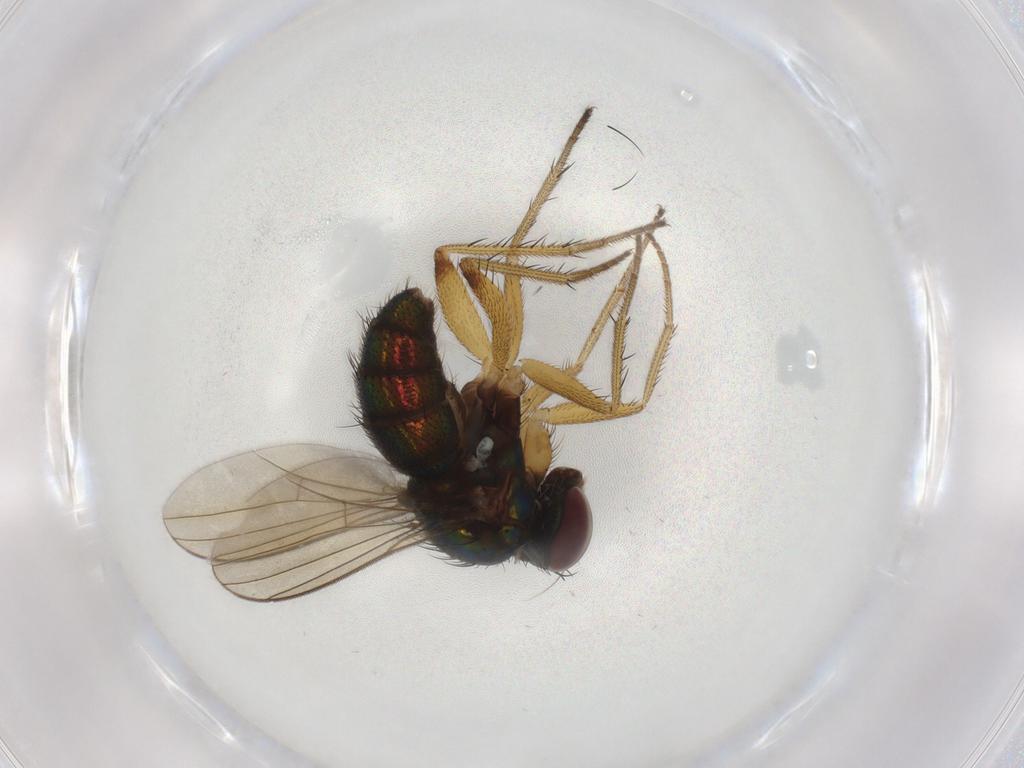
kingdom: Animalia
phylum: Arthropoda
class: Insecta
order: Diptera
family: Dolichopodidae
